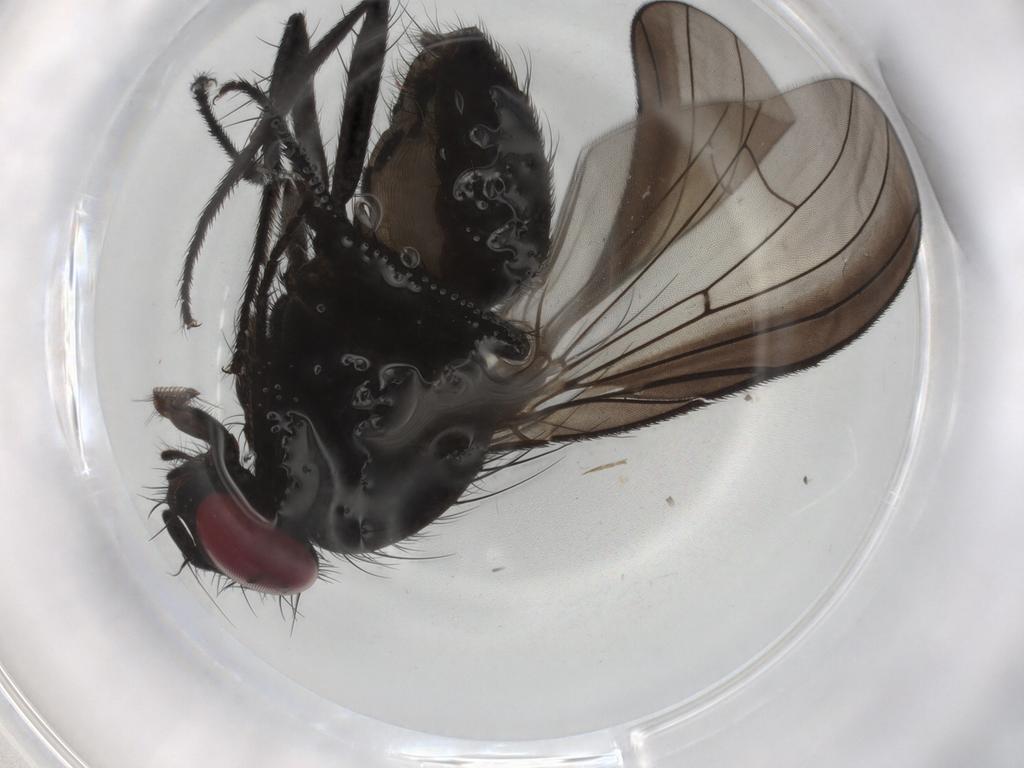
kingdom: Animalia
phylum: Arthropoda
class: Insecta
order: Diptera
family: Fannia
